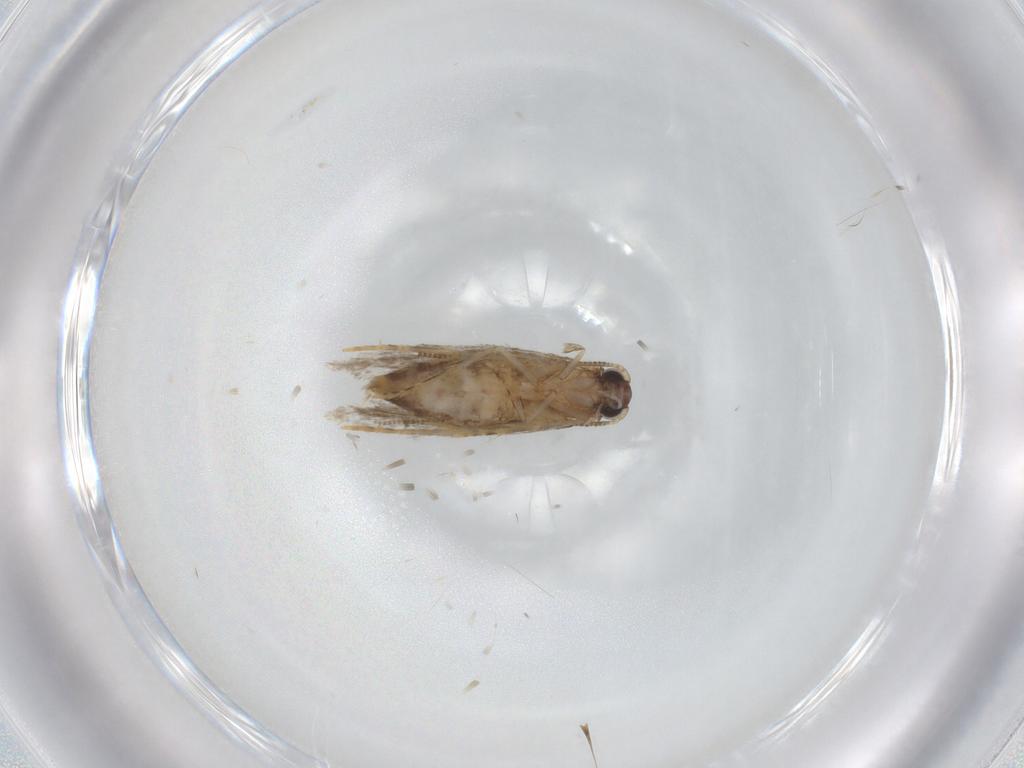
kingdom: Animalia
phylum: Arthropoda
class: Insecta
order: Lepidoptera
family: Tineidae
